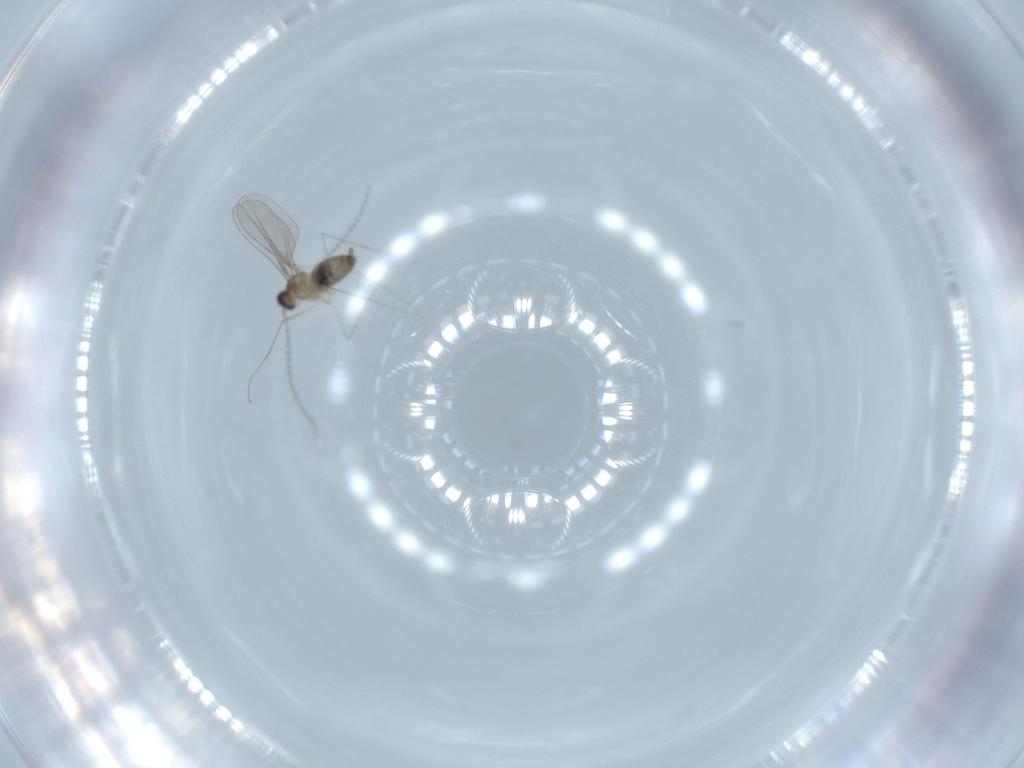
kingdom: Animalia
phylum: Arthropoda
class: Insecta
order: Diptera
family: Cecidomyiidae
